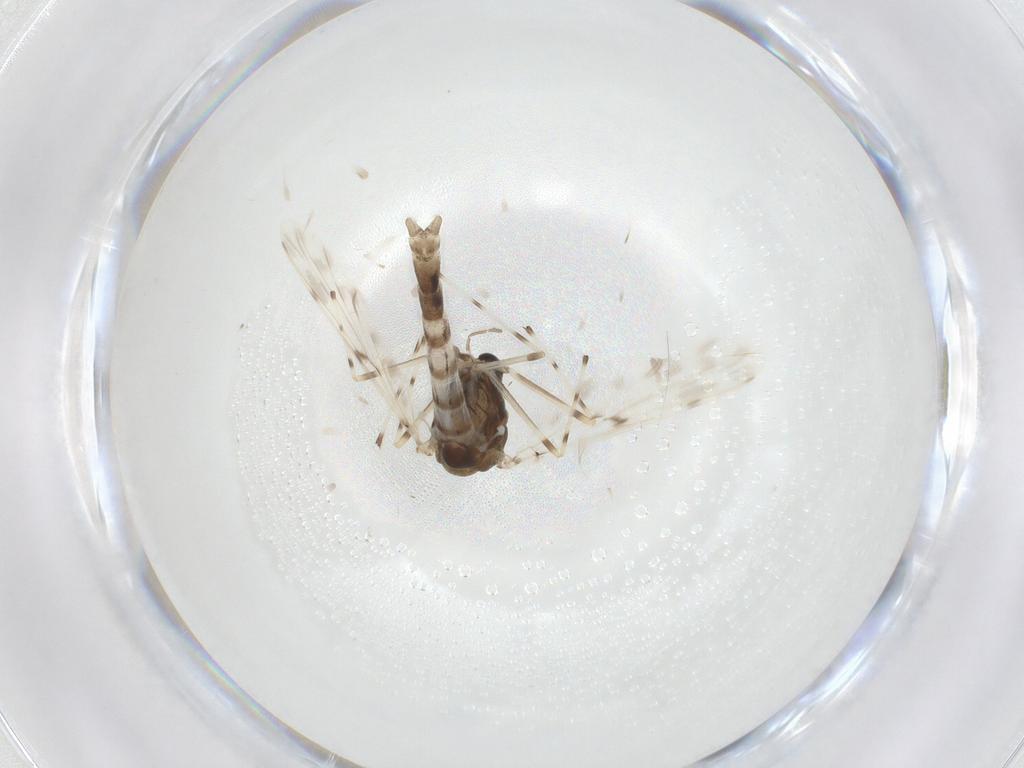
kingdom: Animalia
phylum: Arthropoda
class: Insecta
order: Diptera
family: Chironomidae
